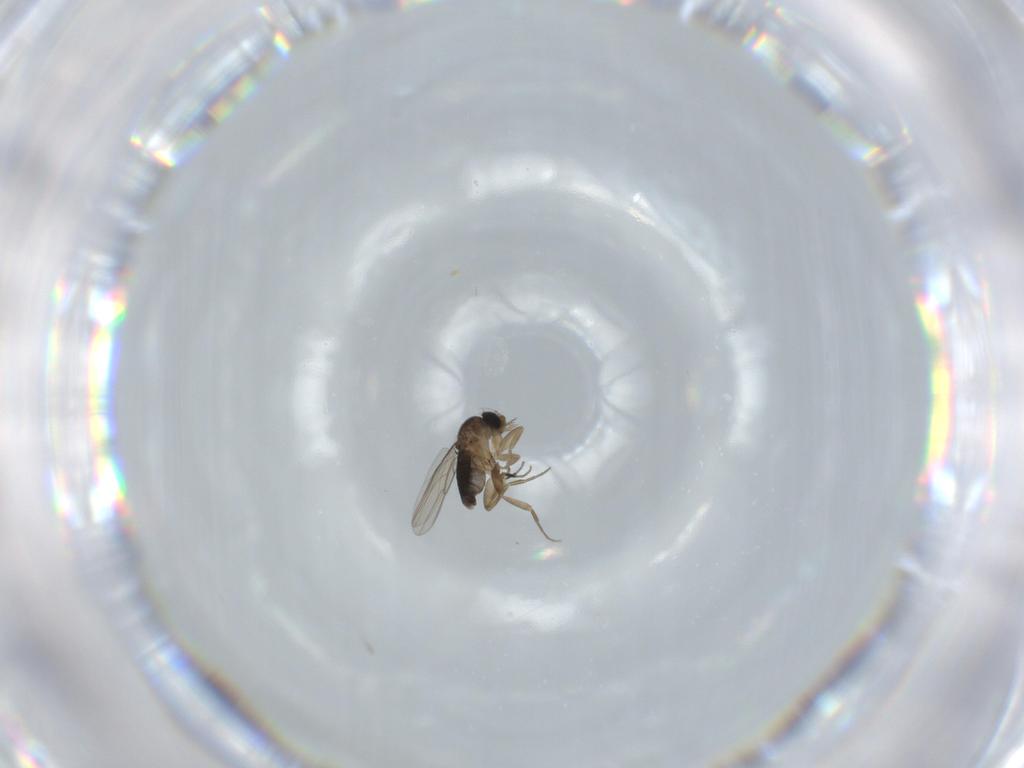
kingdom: Animalia
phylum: Arthropoda
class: Insecta
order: Diptera
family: Phoridae
